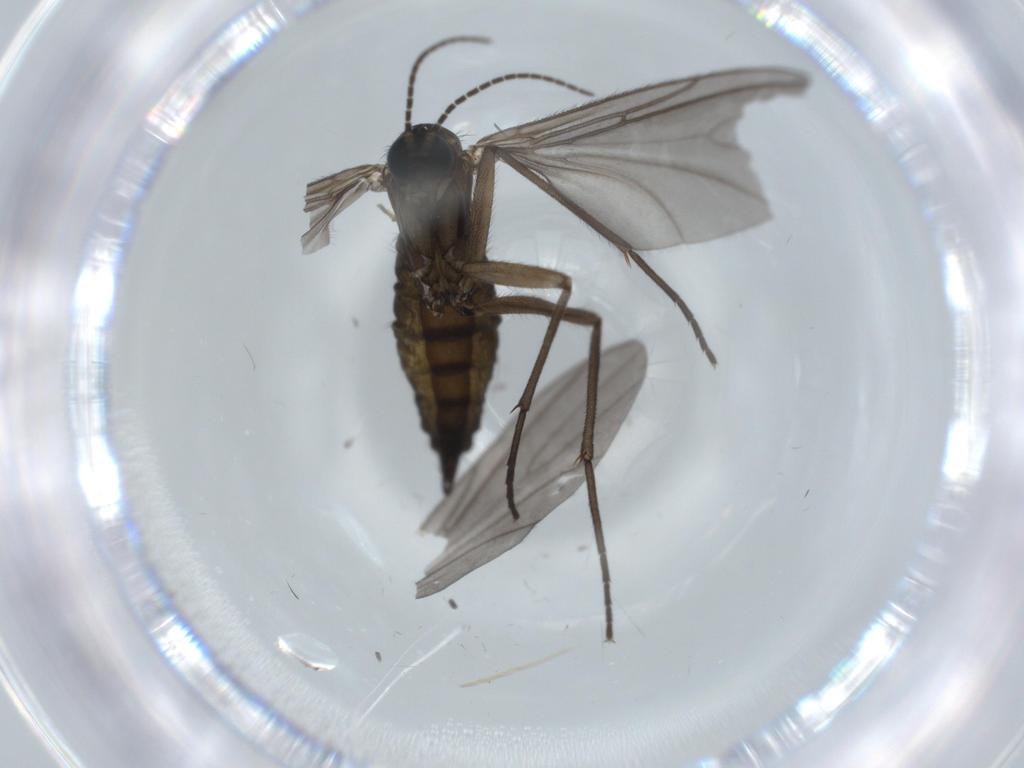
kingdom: Animalia
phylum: Arthropoda
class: Insecta
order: Diptera
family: Sciaridae
